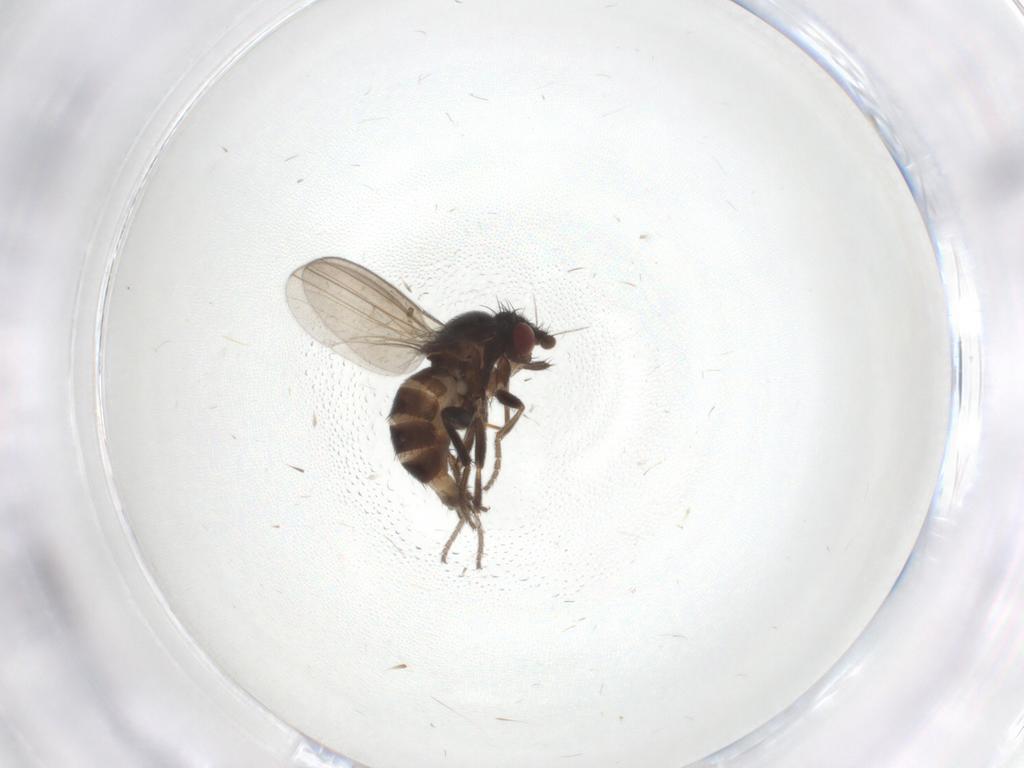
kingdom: Animalia
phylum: Arthropoda
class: Insecta
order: Diptera
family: Milichiidae
